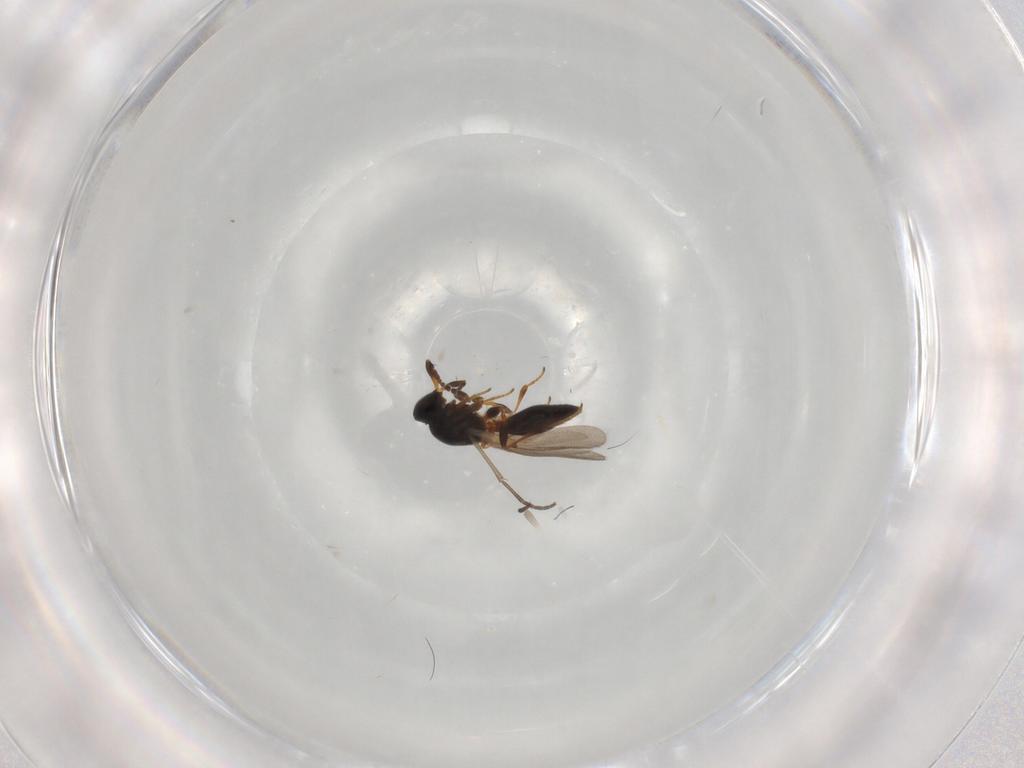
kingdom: Animalia
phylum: Arthropoda
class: Insecta
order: Hymenoptera
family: Platygastridae
